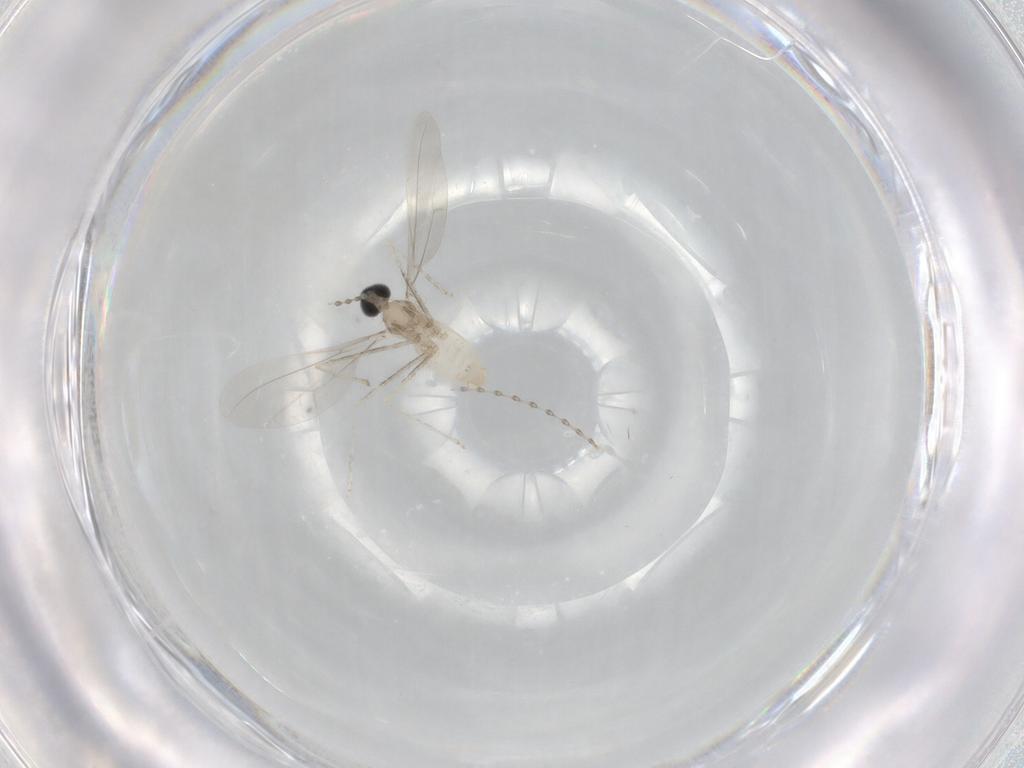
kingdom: Animalia
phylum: Arthropoda
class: Insecta
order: Diptera
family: Cecidomyiidae
